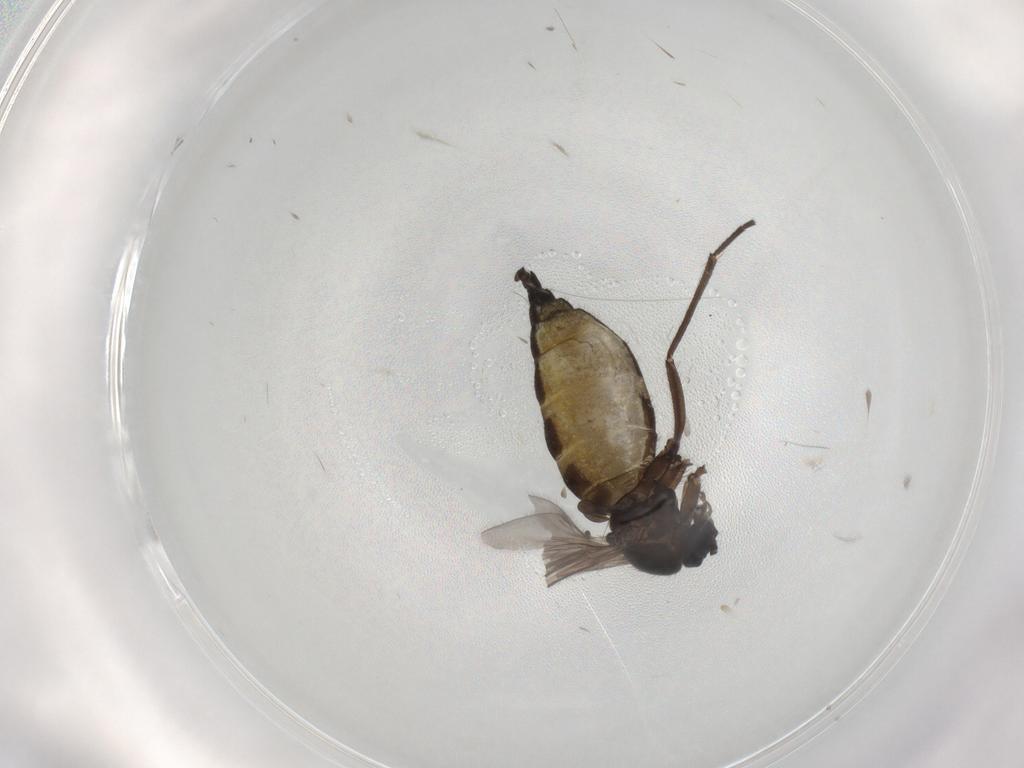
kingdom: Animalia
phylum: Arthropoda
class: Insecta
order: Diptera
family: Sciaridae
